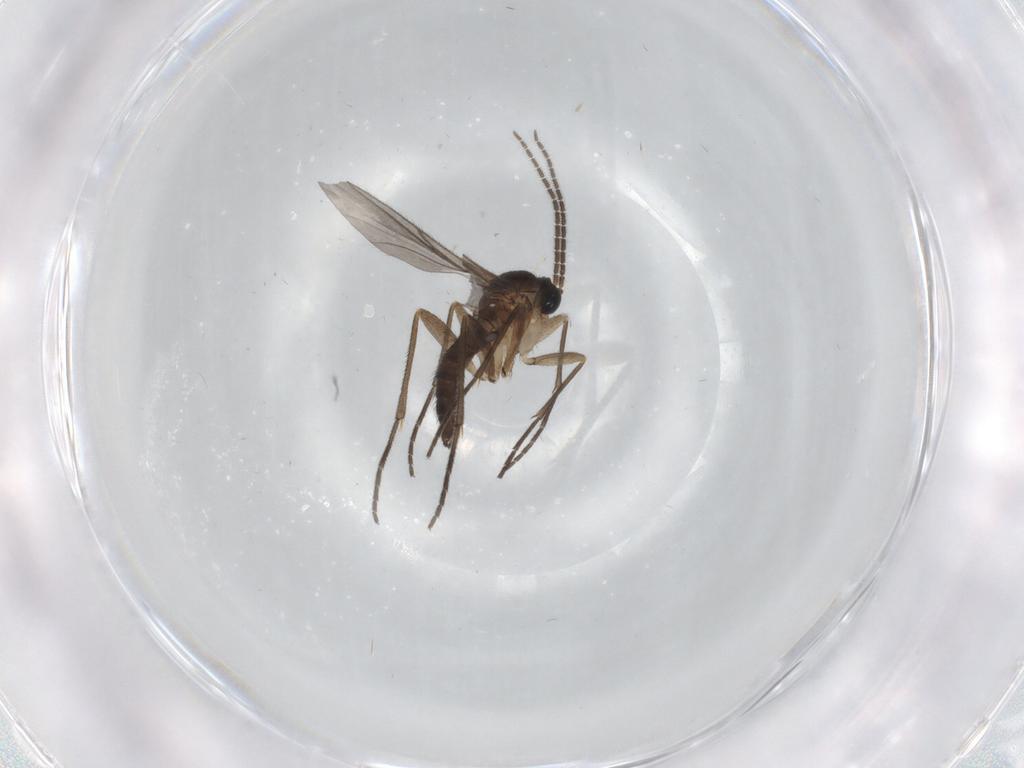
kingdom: Animalia
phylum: Arthropoda
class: Insecta
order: Diptera
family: Sciaridae
